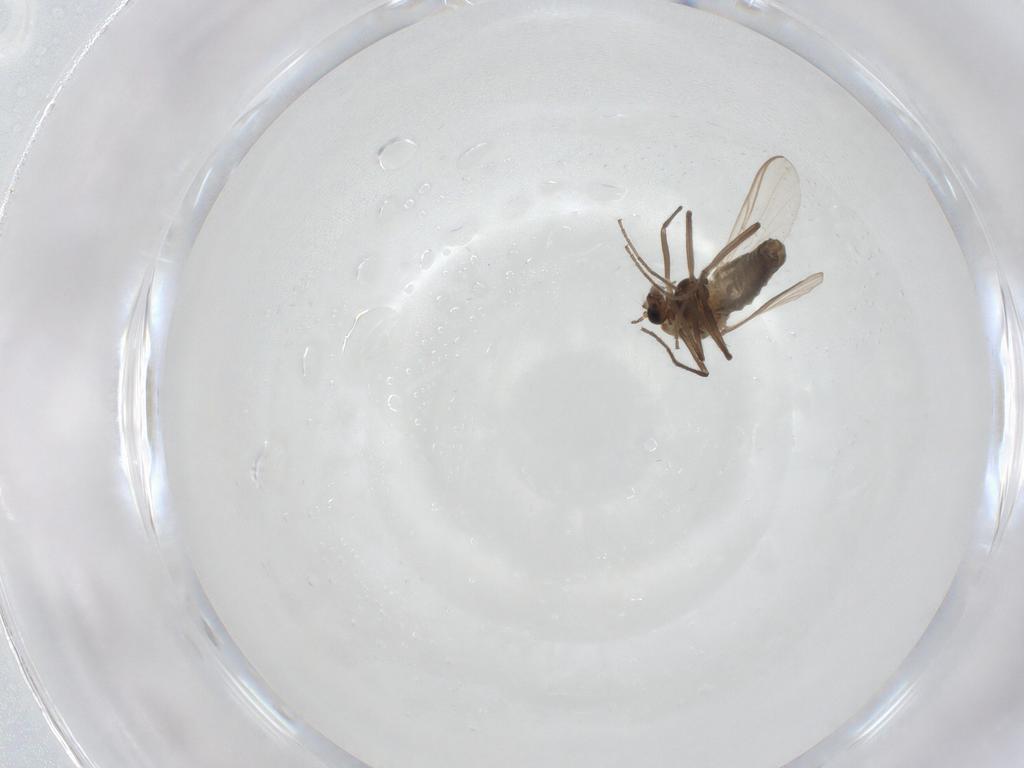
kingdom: Animalia
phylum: Arthropoda
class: Insecta
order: Diptera
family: Chironomidae
